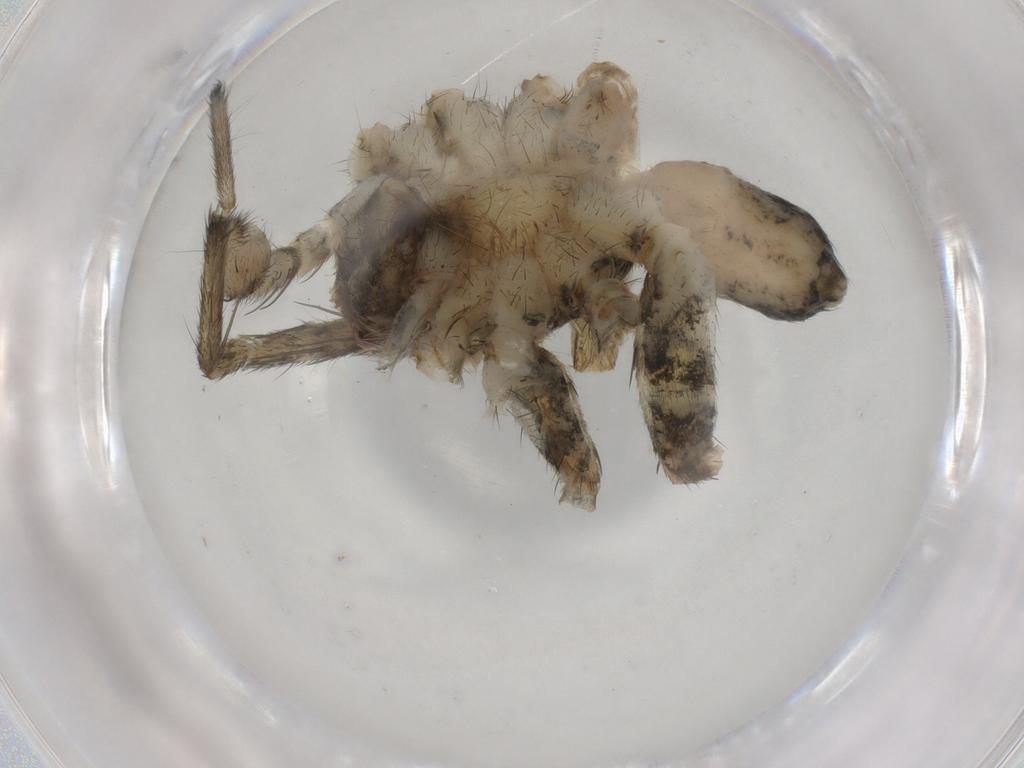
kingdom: Animalia
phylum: Arthropoda
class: Arachnida
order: Araneae
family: Lycosidae
